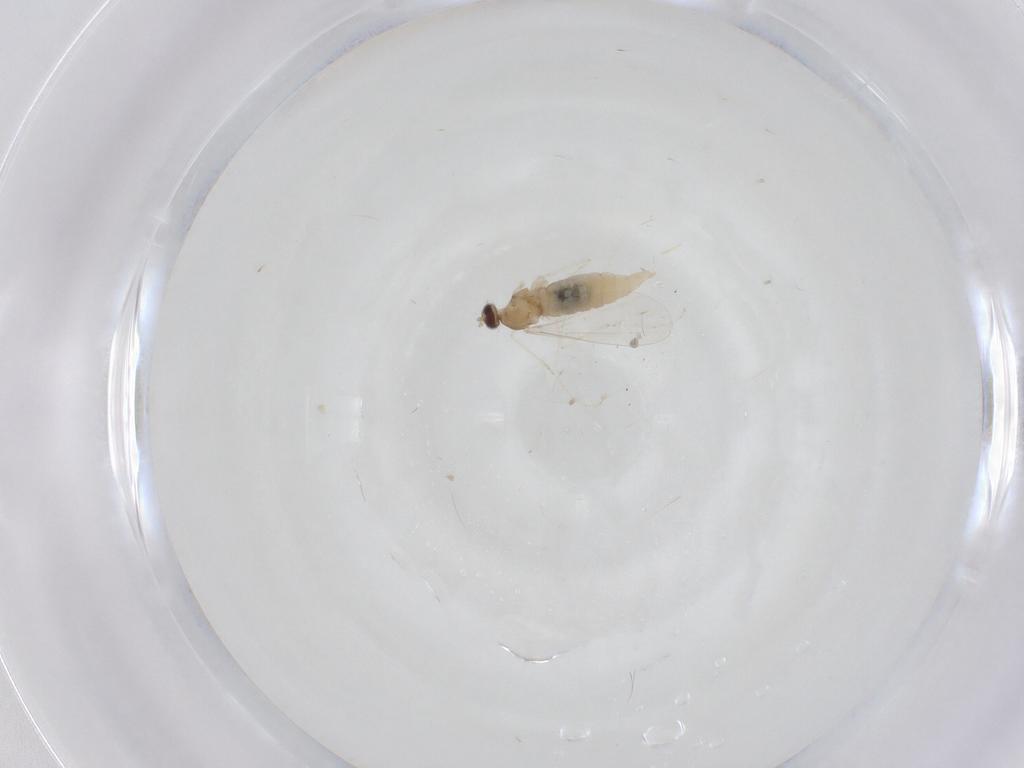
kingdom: Animalia
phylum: Arthropoda
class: Insecta
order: Diptera
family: Cecidomyiidae
